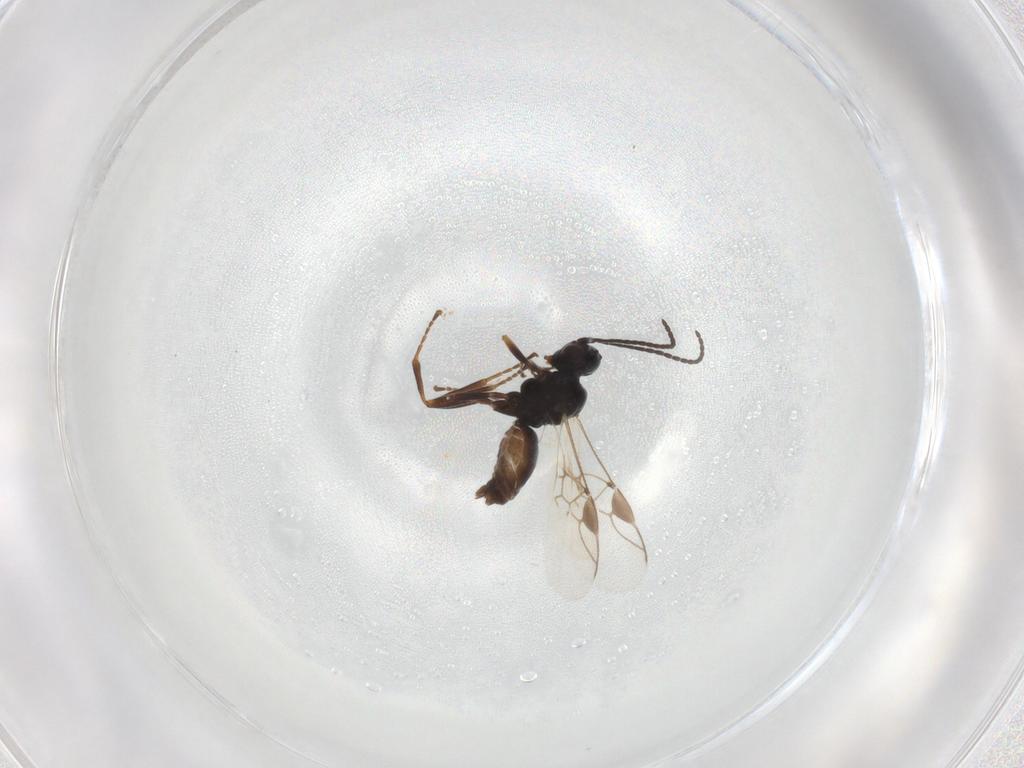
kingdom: Animalia
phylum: Arthropoda
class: Insecta
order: Hymenoptera
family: Braconidae
